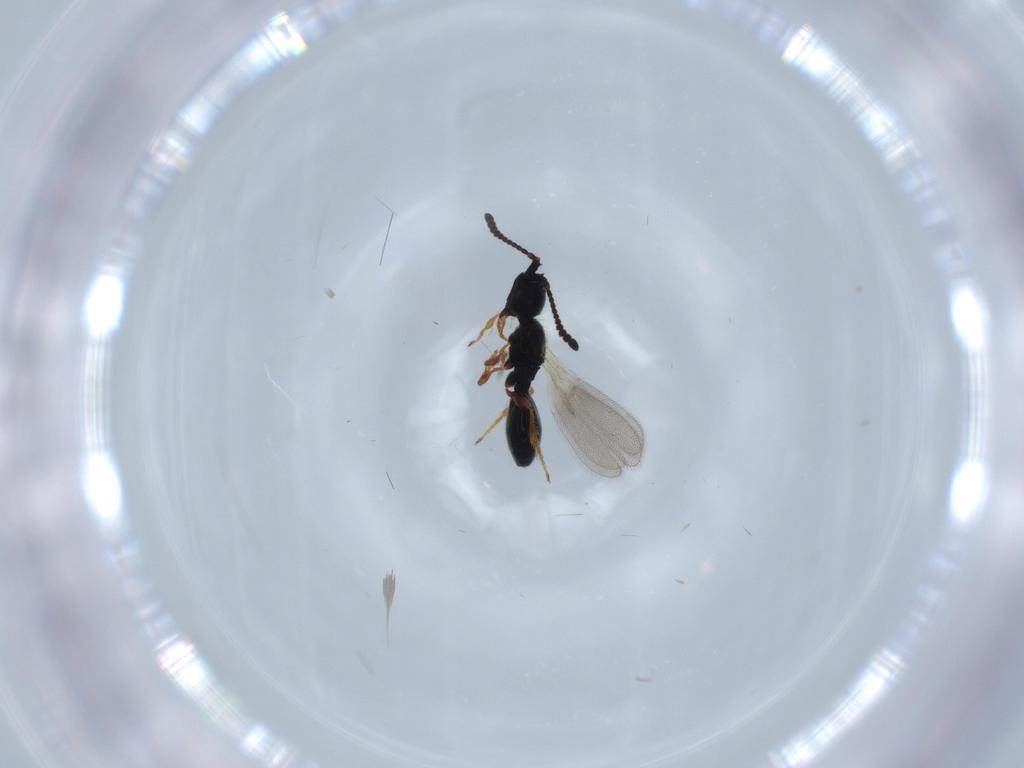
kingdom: Animalia
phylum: Arthropoda
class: Insecta
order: Hymenoptera
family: Diapriidae
